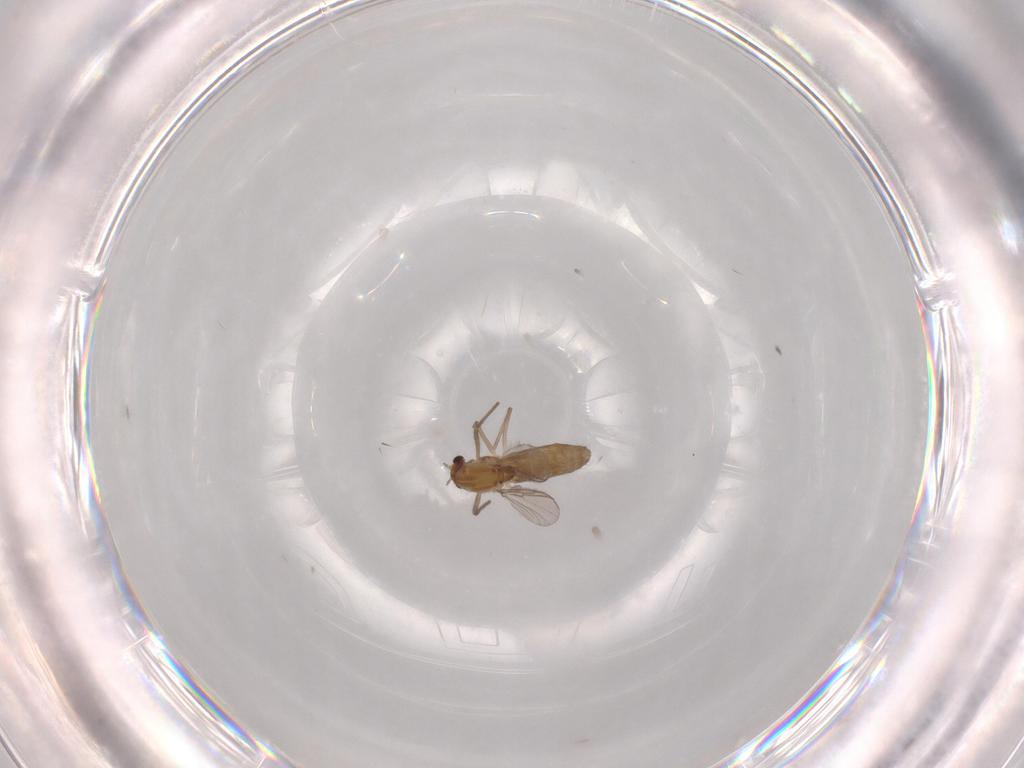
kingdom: Animalia
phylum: Arthropoda
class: Insecta
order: Diptera
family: Chironomidae
